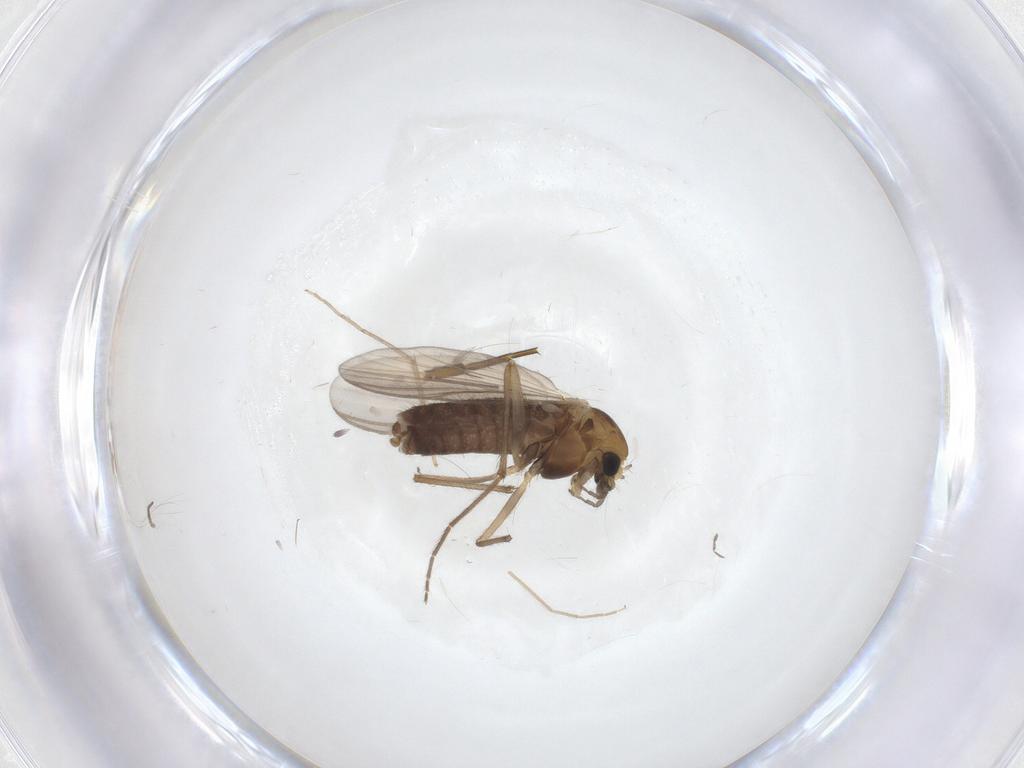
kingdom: Animalia
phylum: Arthropoda
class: Insecta
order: Diptera
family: Chironomidae
